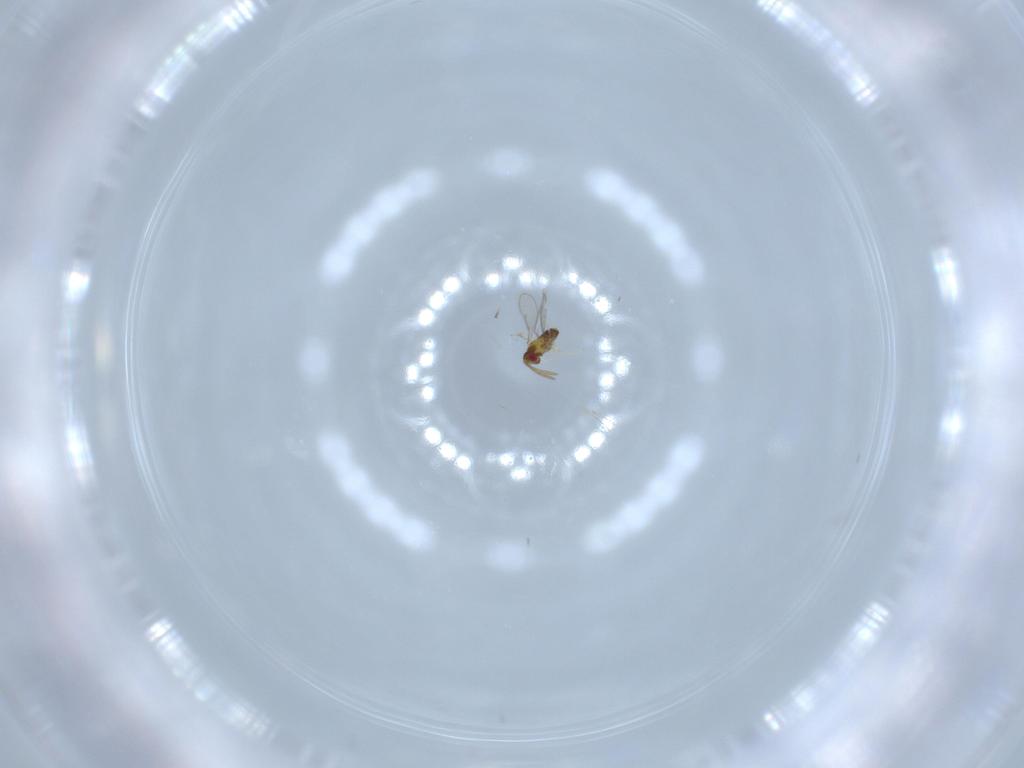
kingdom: Animalia
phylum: Arthropoda
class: Insecta
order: Hymenoptera
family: Aphelinidae
